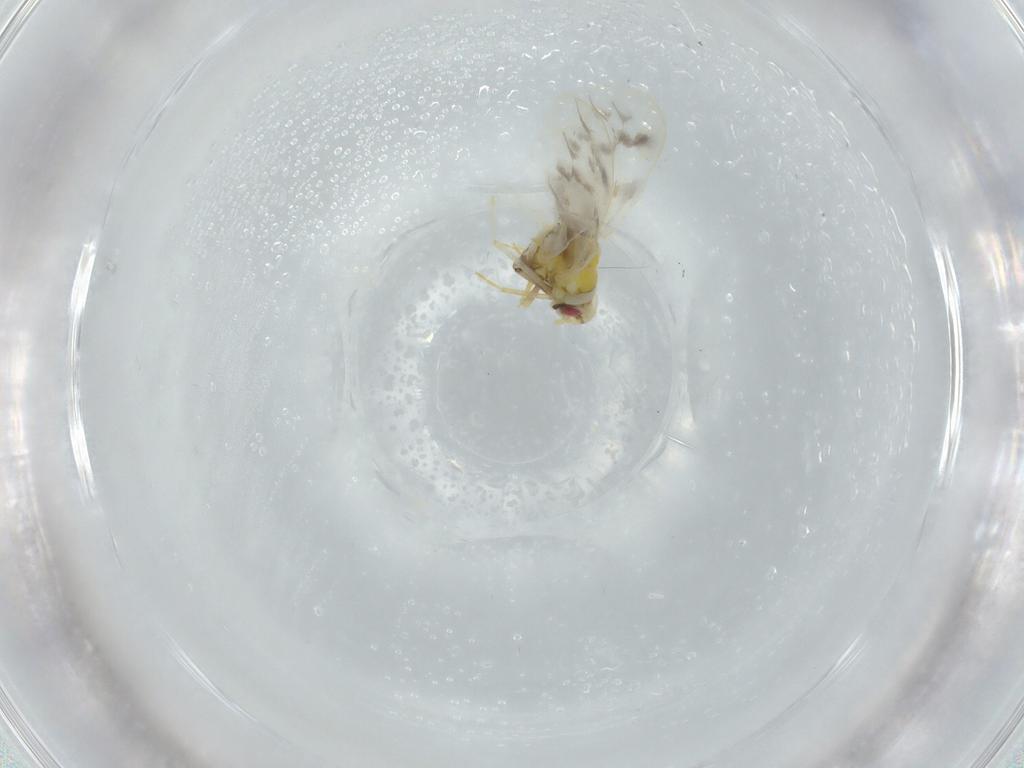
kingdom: Animalia
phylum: Arthropoda
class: Insecta
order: Hemiptera
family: Aleyrodidae
